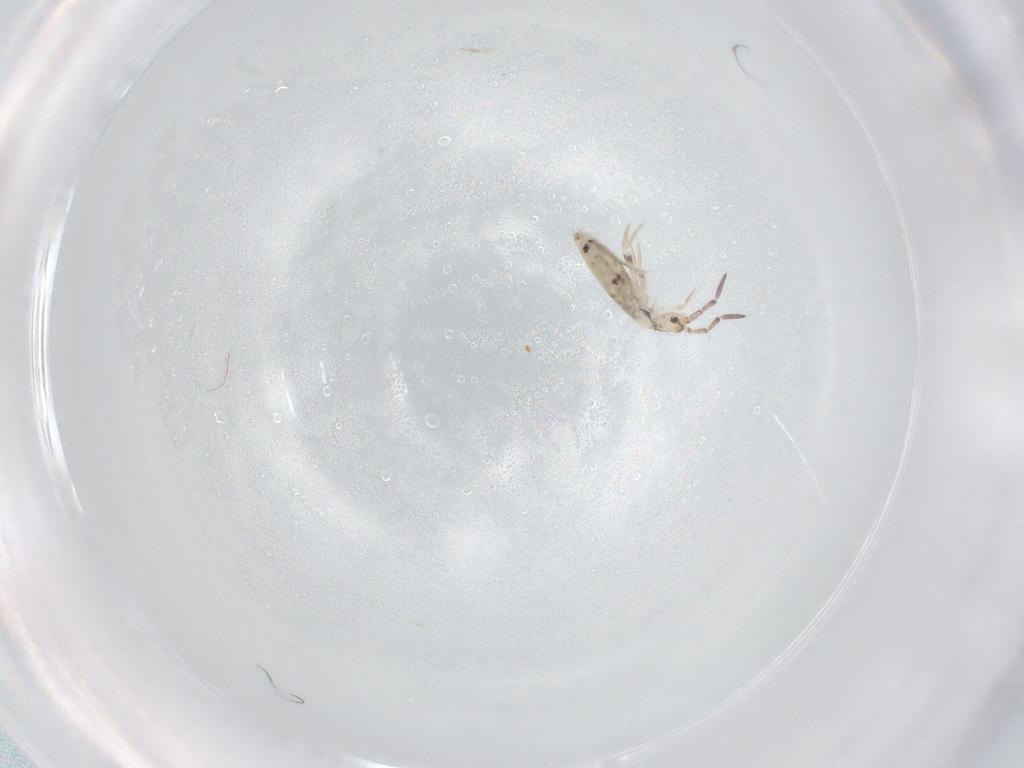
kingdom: Animalia
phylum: Arthropoda
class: Collembola
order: Entomobryomorpha
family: Entomobryidae
